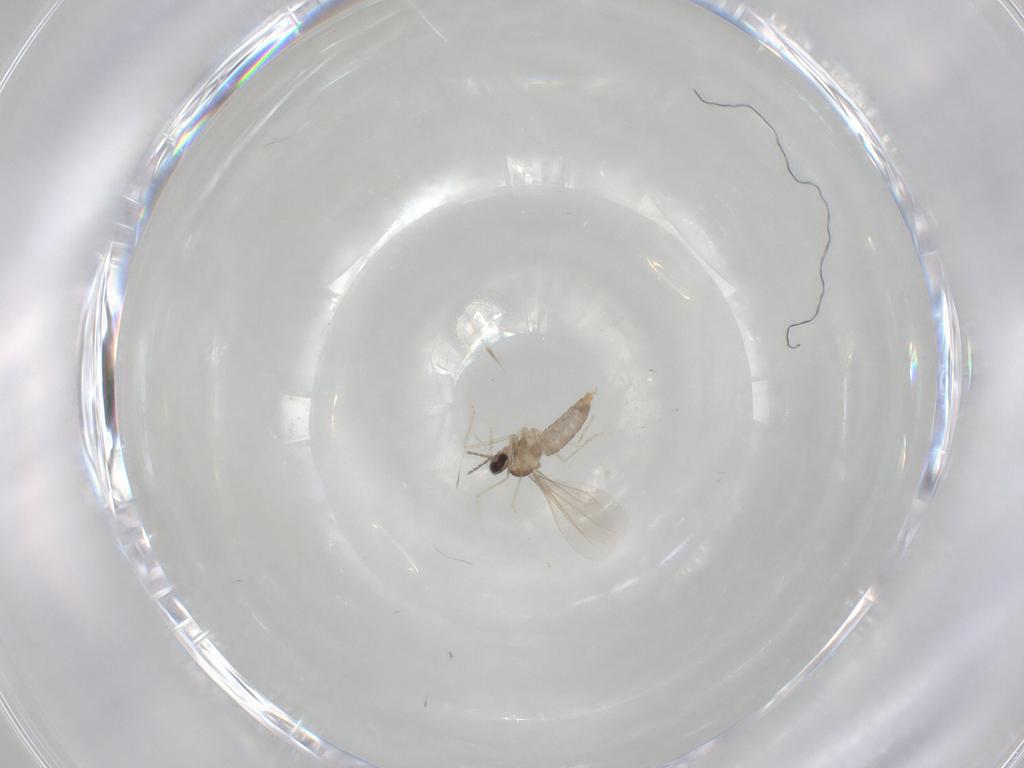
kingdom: Animalia
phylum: Arthropoda
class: Insecta
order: Diptera
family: Cecidomyiidae
